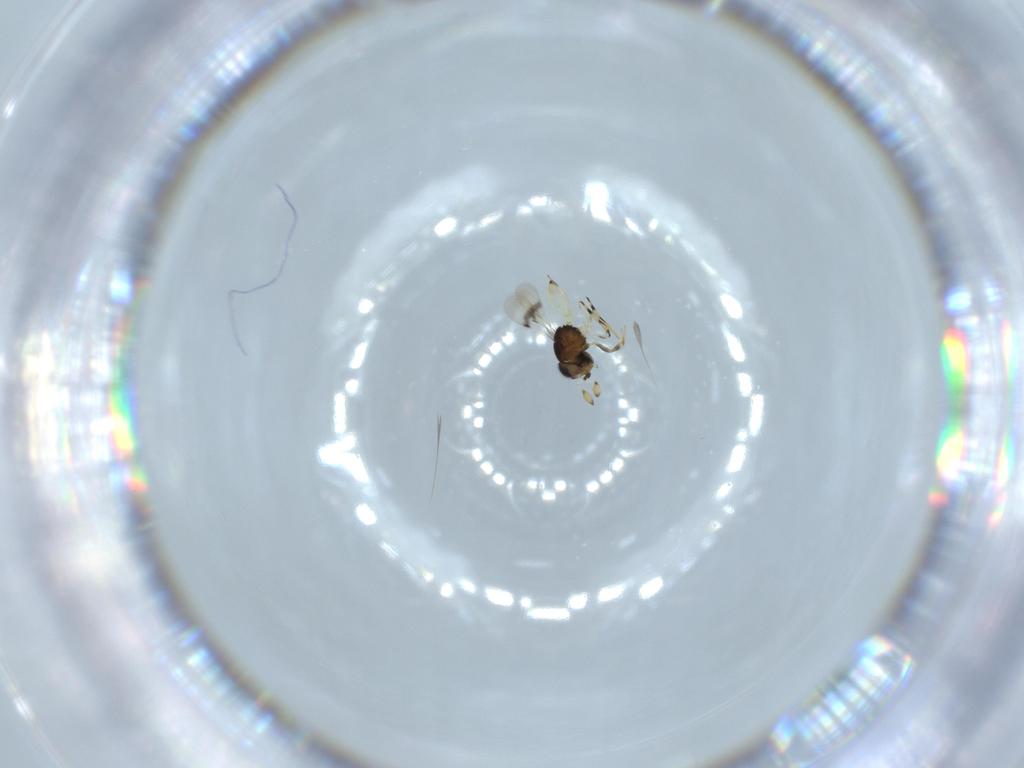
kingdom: Animalia
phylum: Arthropoda
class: Insecta
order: Hymenoptera
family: Scelionidae
